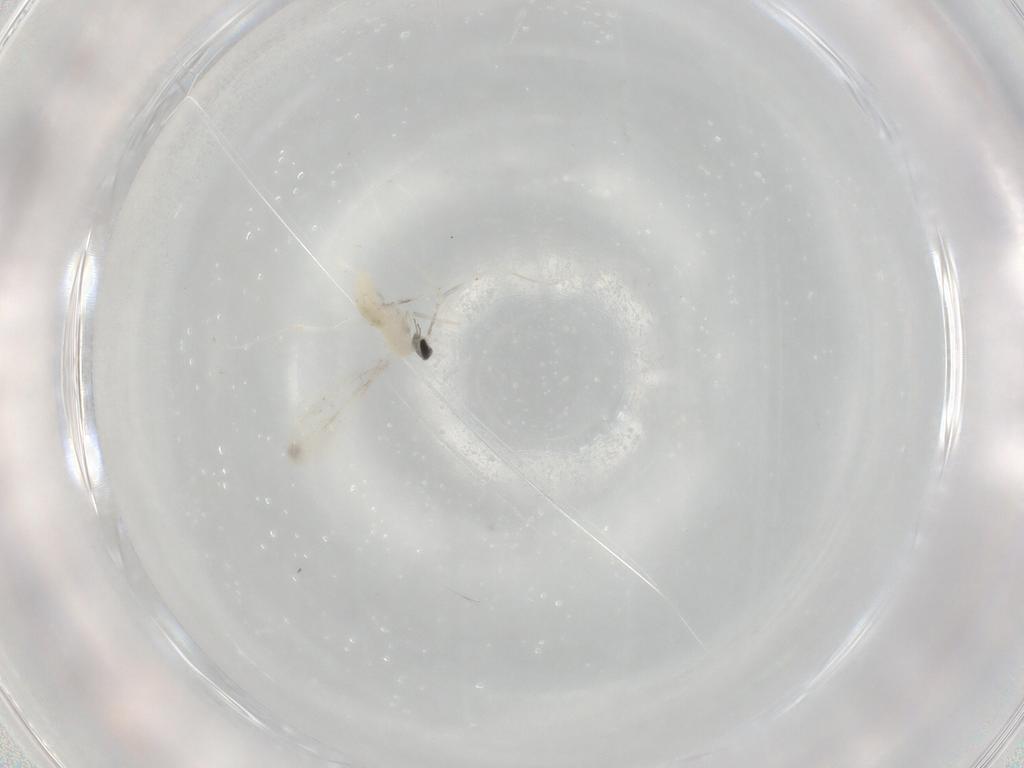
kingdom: Animalia
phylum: Arthropoda
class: Insecta
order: Diptera
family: Cecidomyiidae
